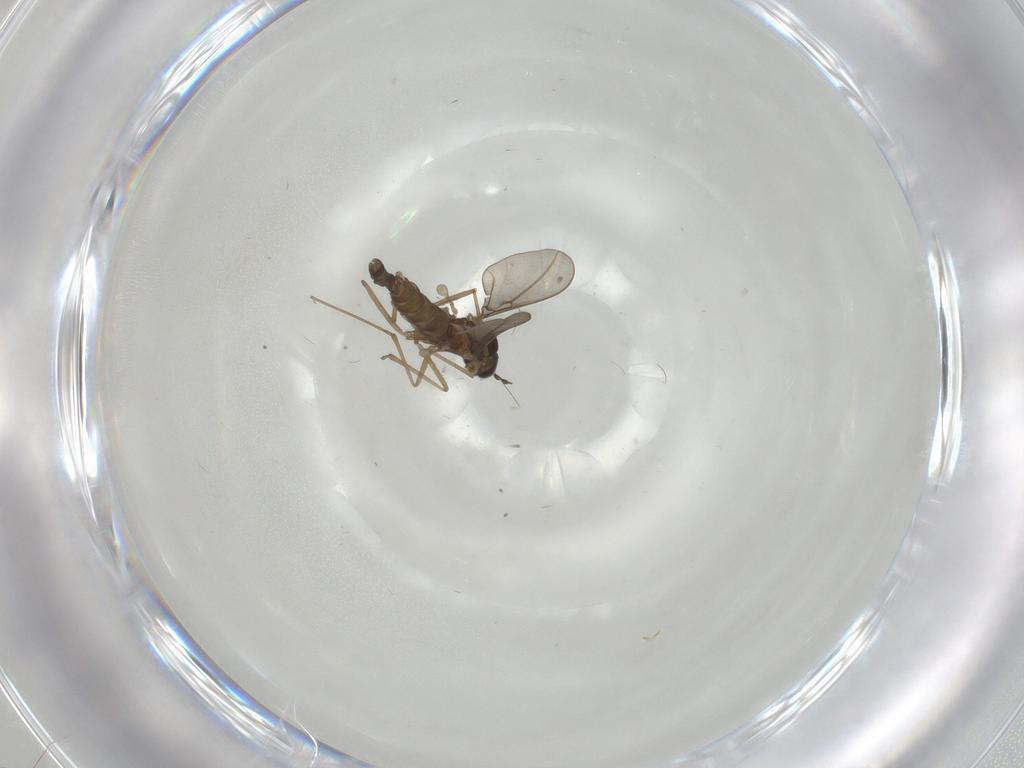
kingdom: Animalia
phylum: Arthropoda
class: Insecta
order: Diptera
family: Cecidomyiidae
